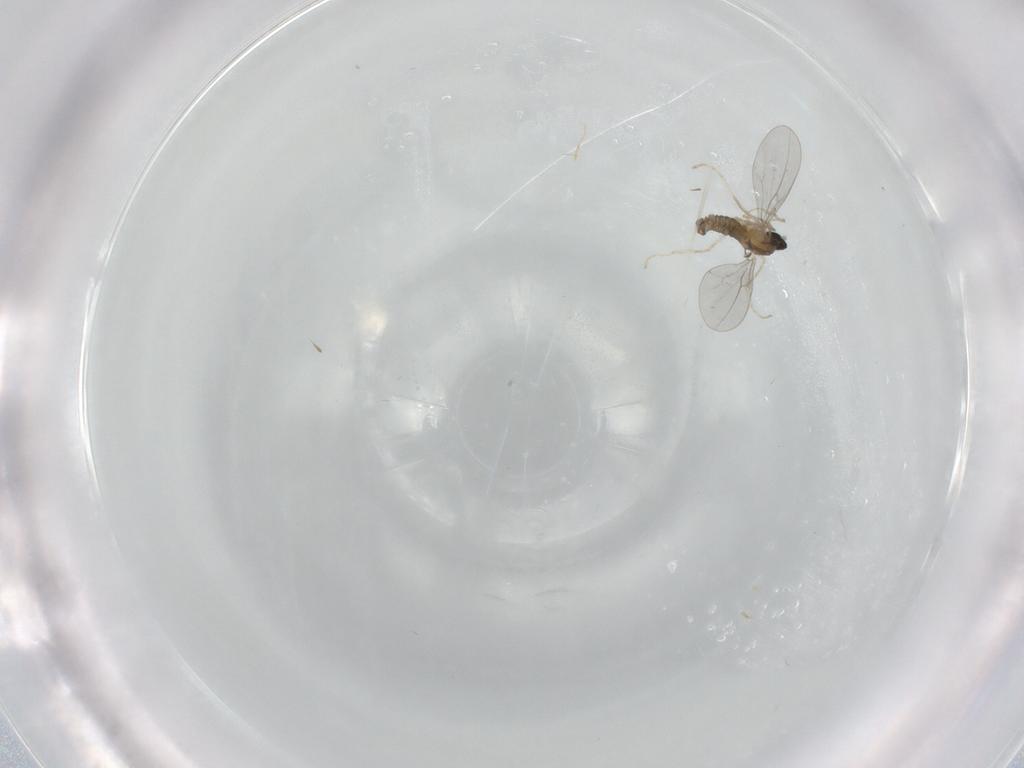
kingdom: Animalia
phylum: Arthropoda
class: Insecta
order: Diptera
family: Cecidomyiidae
